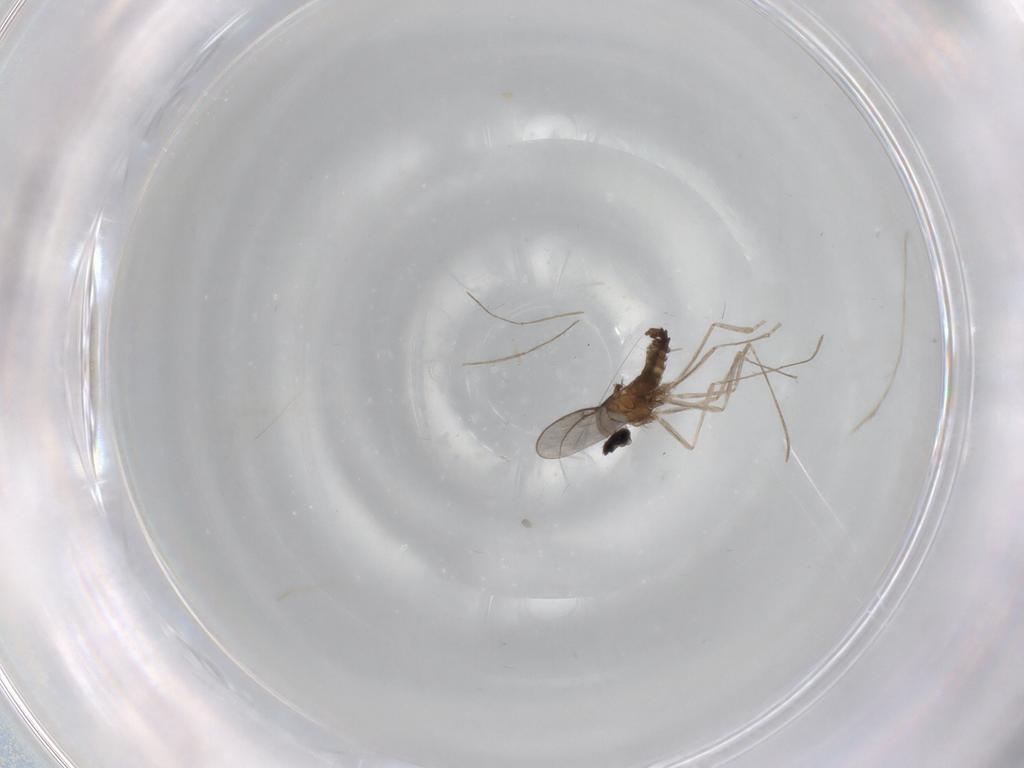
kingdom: Animalia
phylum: Arthropoda
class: Insecta
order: Diptera
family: Cecidomyiidae
